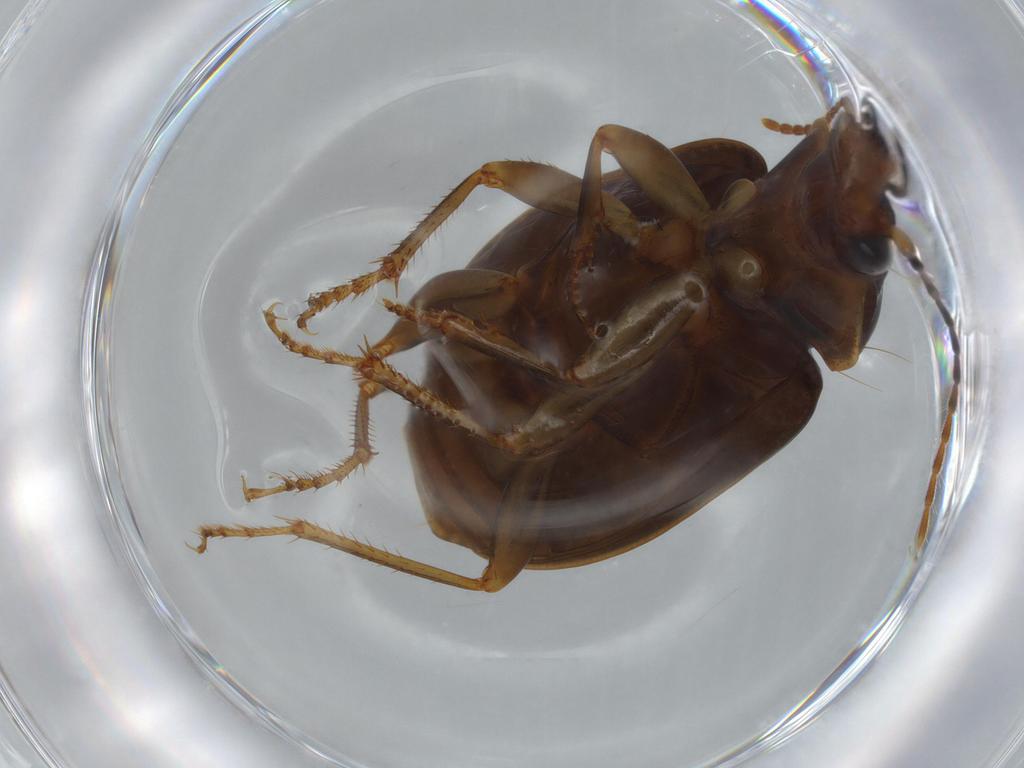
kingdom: Animalia
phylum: Arthropoda
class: Insecta
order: Coleoptera
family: Carabidae
